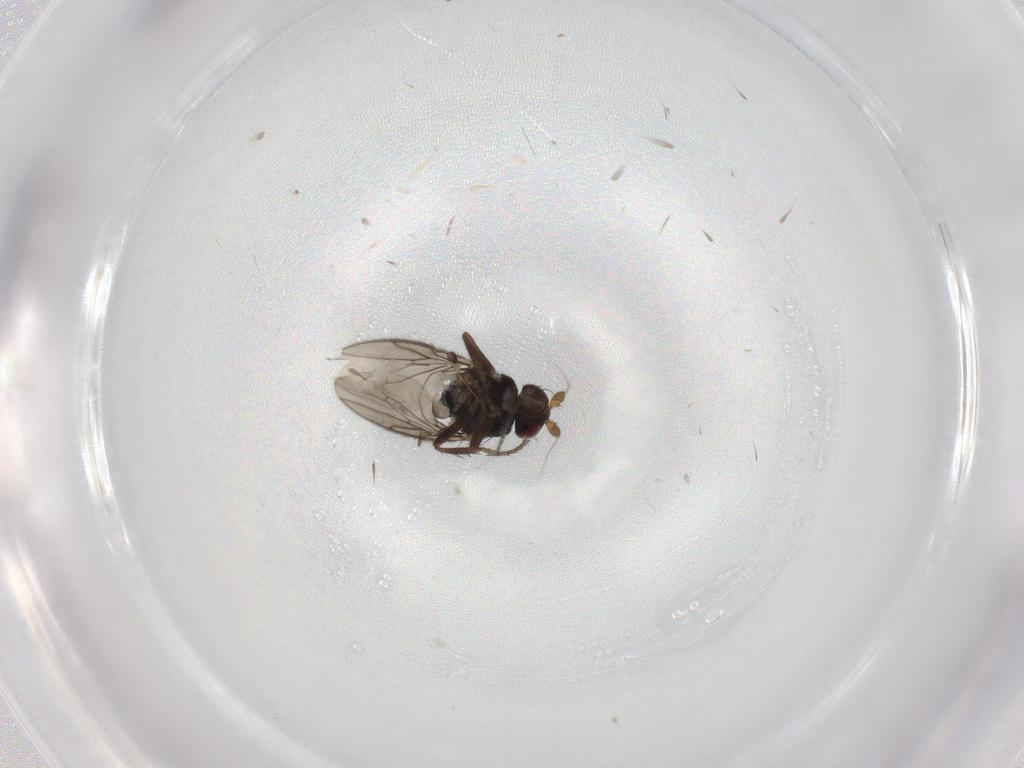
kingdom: Animalia
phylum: Arthropoda
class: Insecta
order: Diptera
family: Sphaeroceridae
